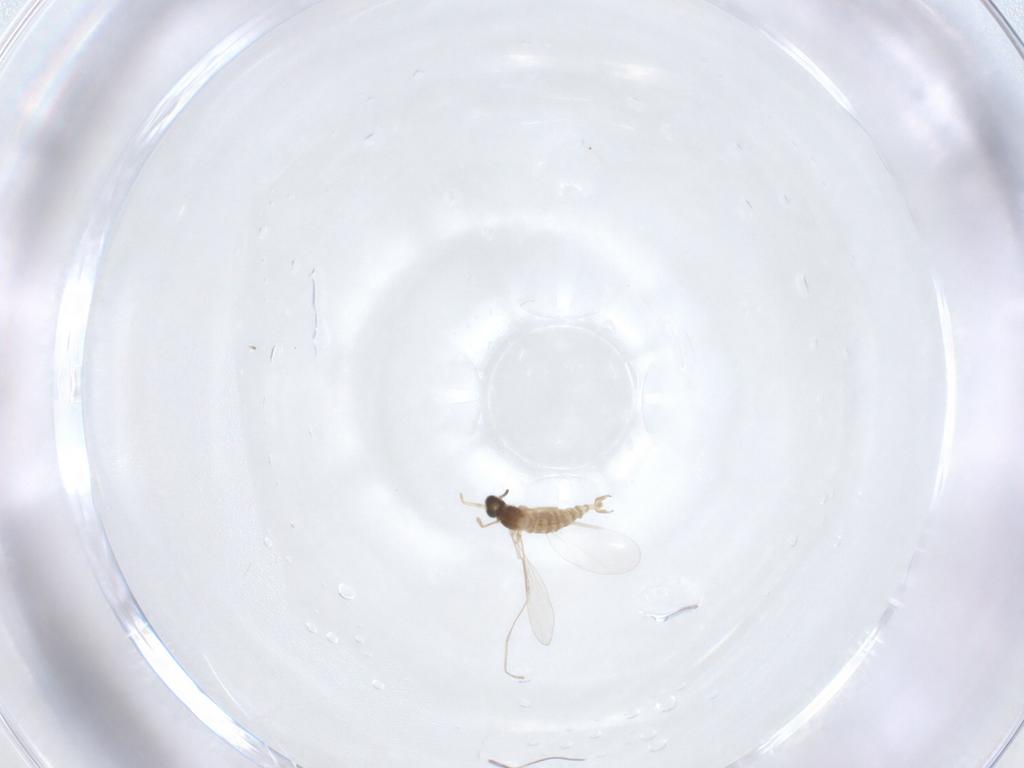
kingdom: Animalia
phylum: Arthropoda
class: Insecta
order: Diptera
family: Cecidomyiidae
